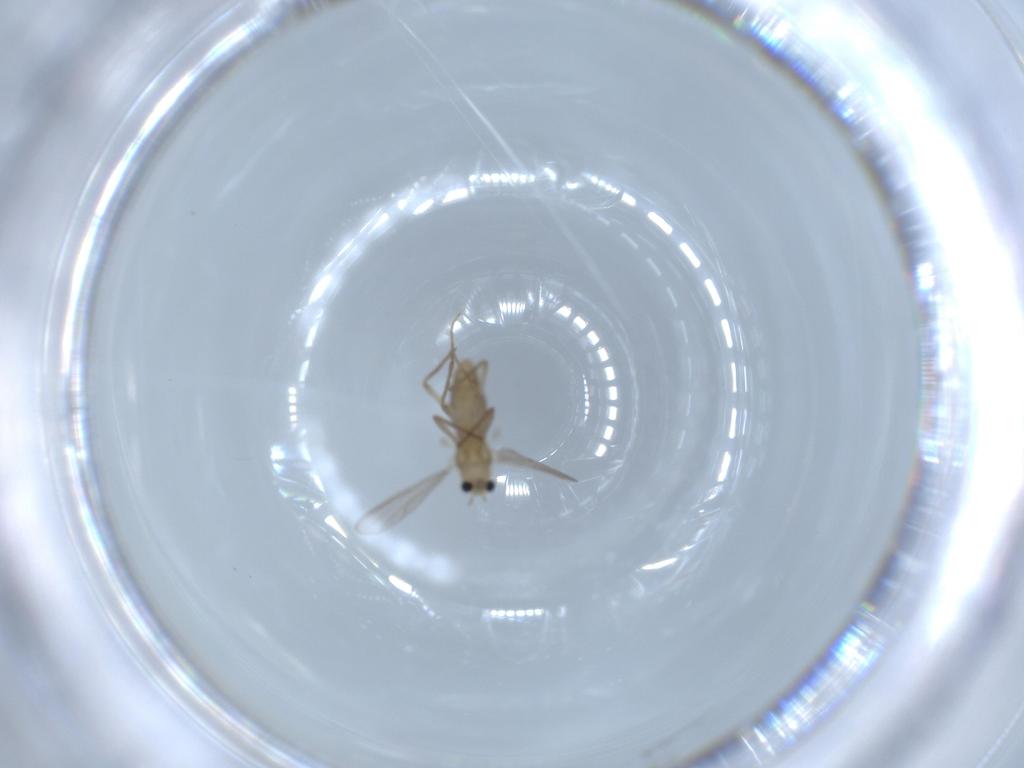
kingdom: Animalia
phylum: Arthropoda
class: Insecta
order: Diptera
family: Chironomidae
